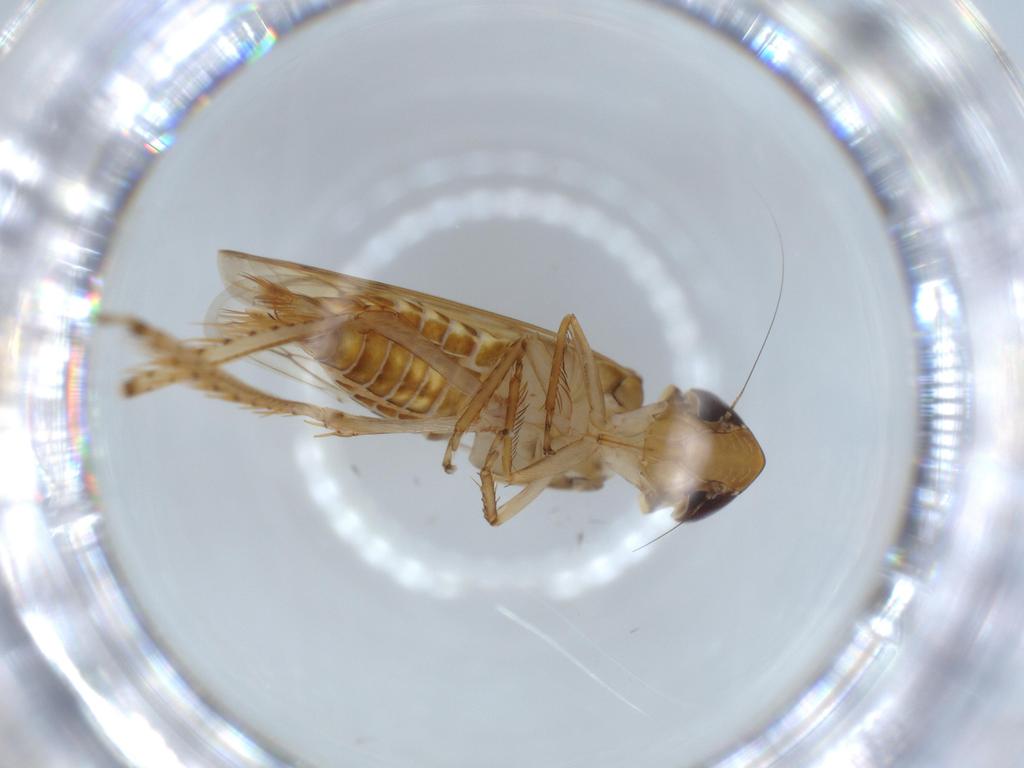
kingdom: Animalia
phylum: Arthropoda
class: Insecta
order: Hemiptera
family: Cicadellidae
